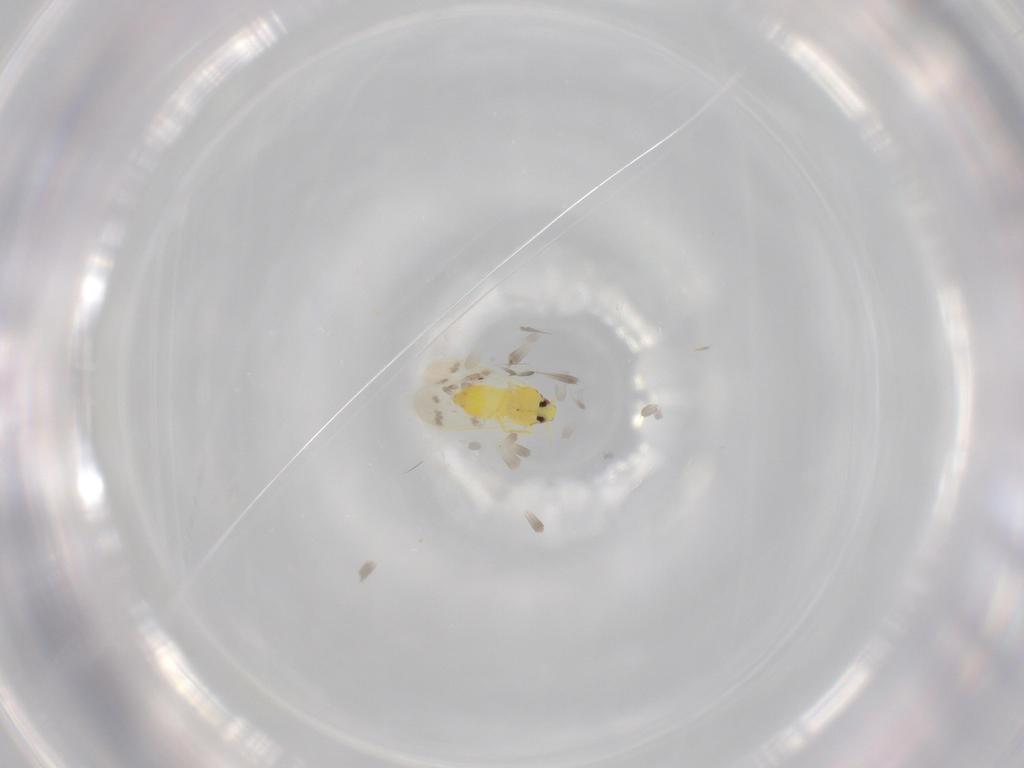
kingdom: Animalia
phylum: Arthropoda
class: Insecta
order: Hemiptera
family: Aleyrodidae
